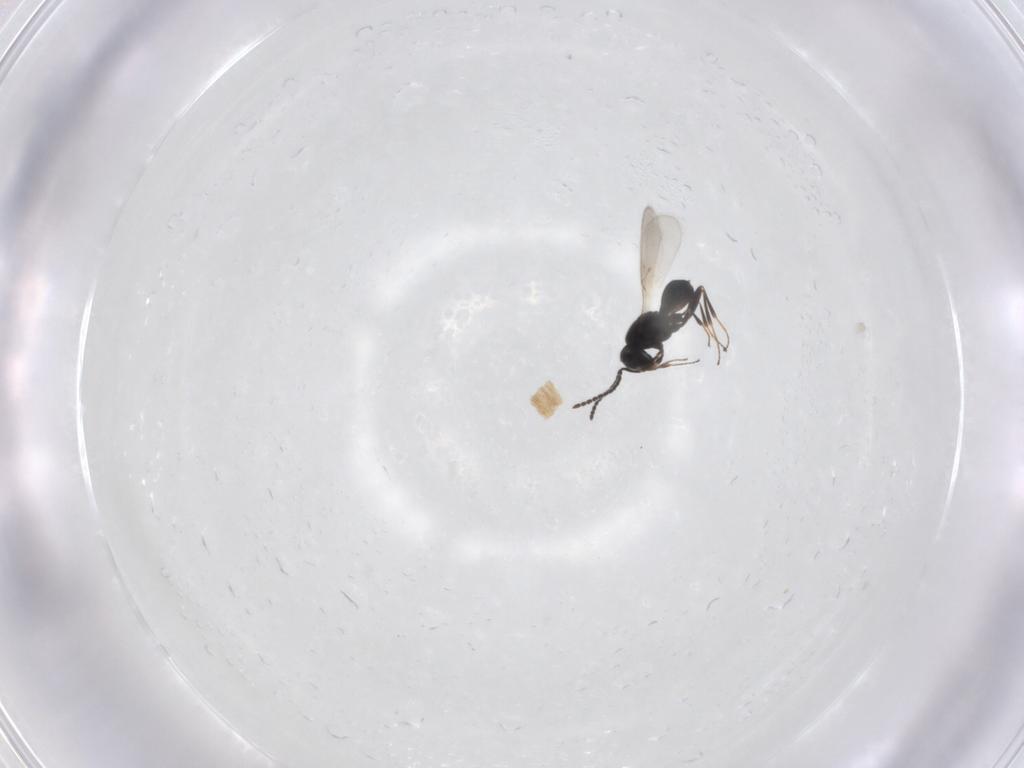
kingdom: Animalia
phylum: Arthropoda
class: Insecta
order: Hymenoptera
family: Scelionidae
